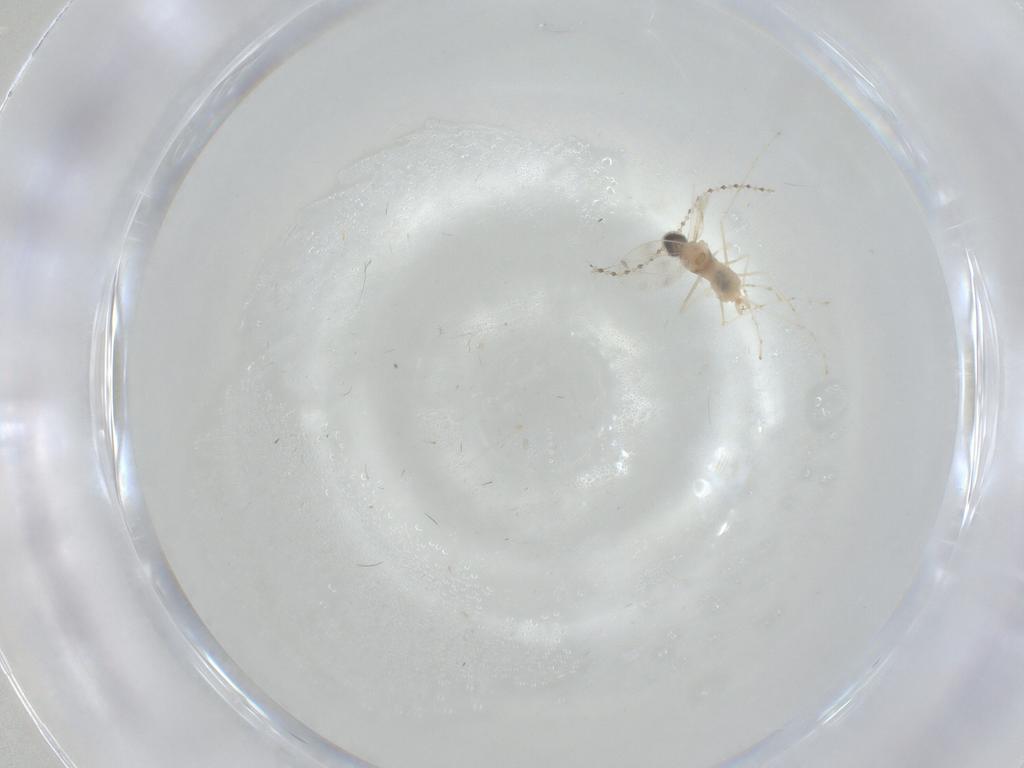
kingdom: Animalia
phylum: Arthropoda
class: Insecta
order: Diptera
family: Cecidomyiidae
